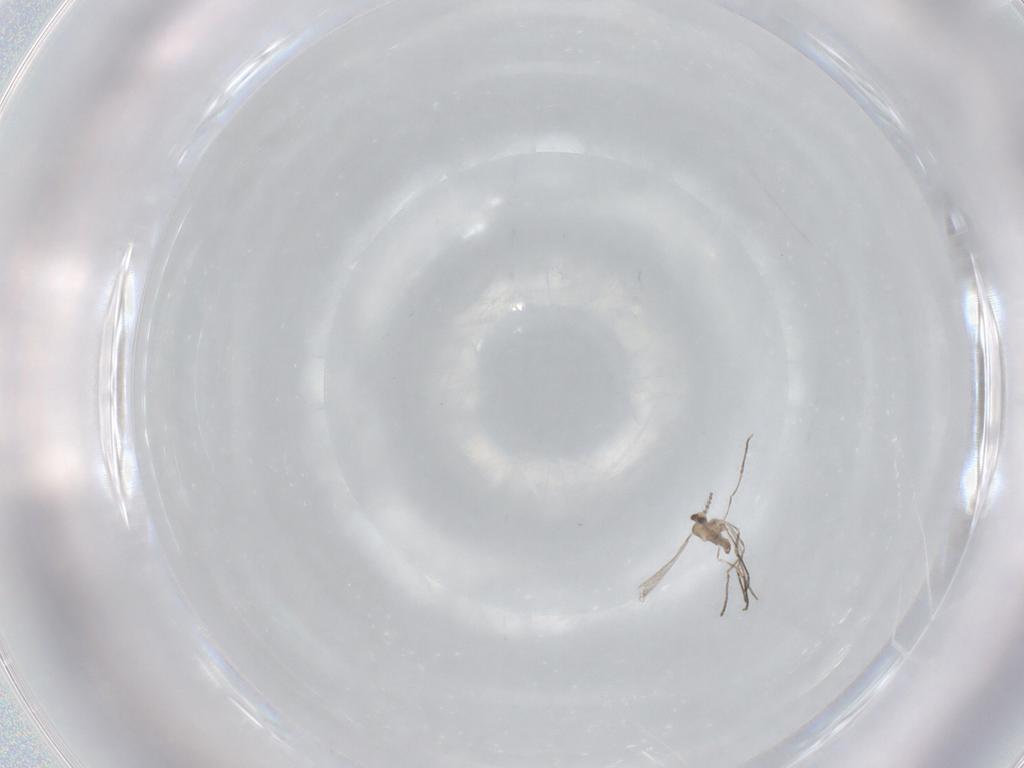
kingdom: Animalia
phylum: Arthropoda
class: Insecta
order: Diptera
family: Cecidomyiidae
